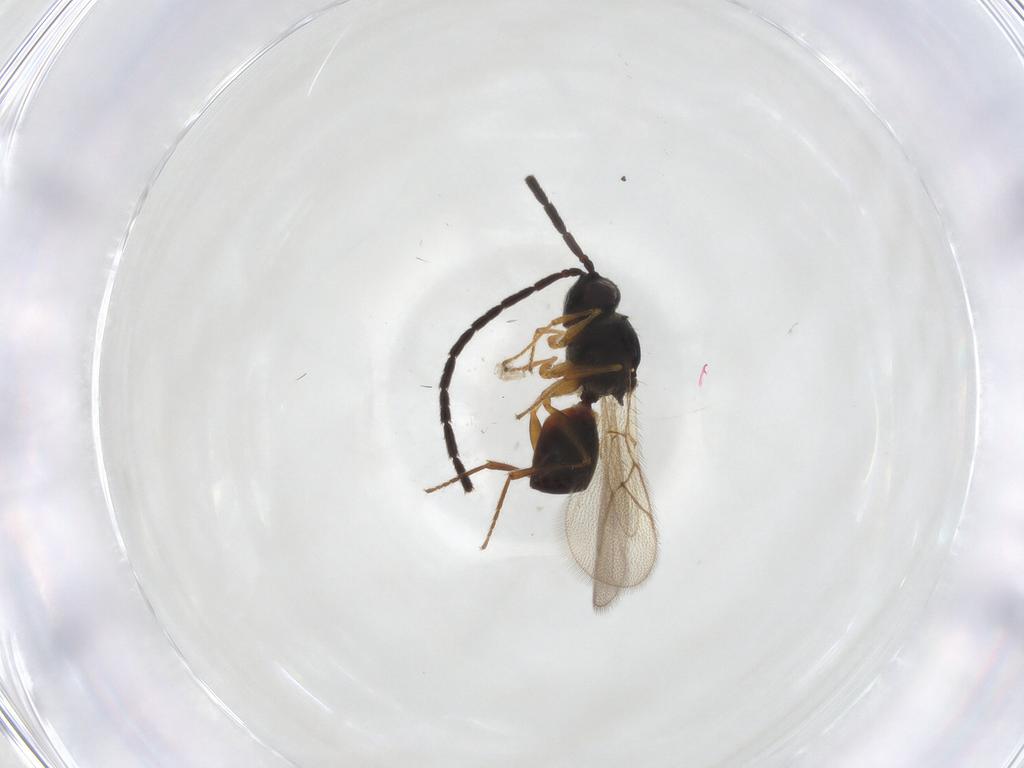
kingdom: Animalia
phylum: Arthropoda
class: Insecta
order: Hymenoptera
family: Figitidae
